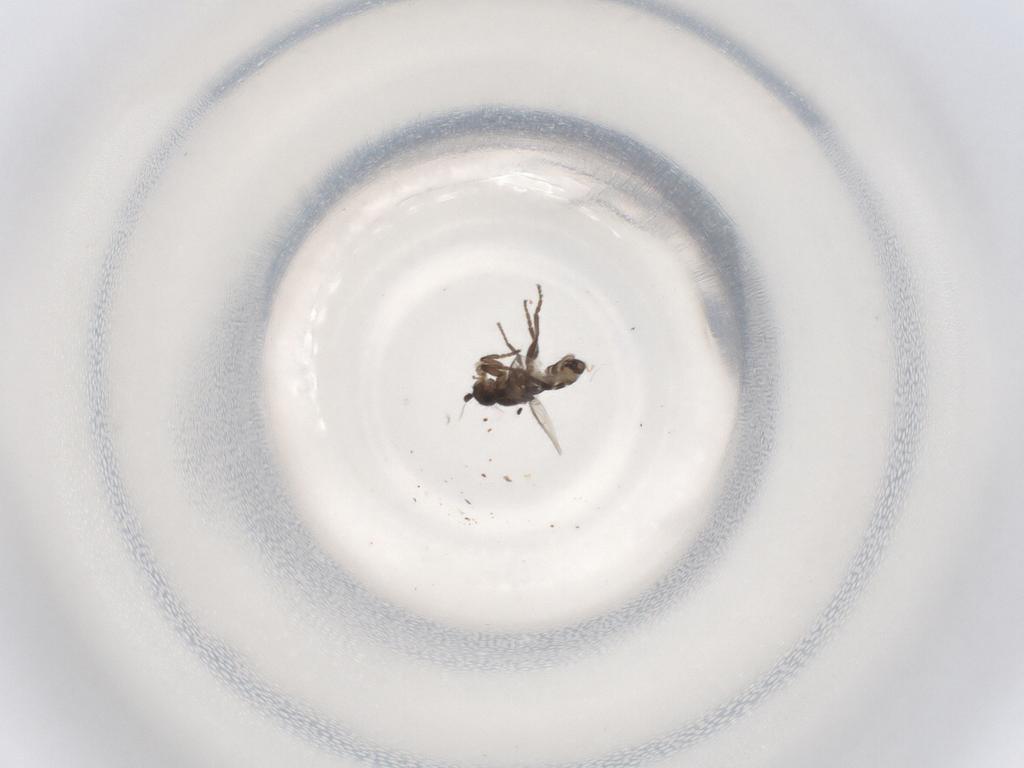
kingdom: Animalia
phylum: Arthropoda
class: Insecta
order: Diptera
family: Sphaeroceridae
